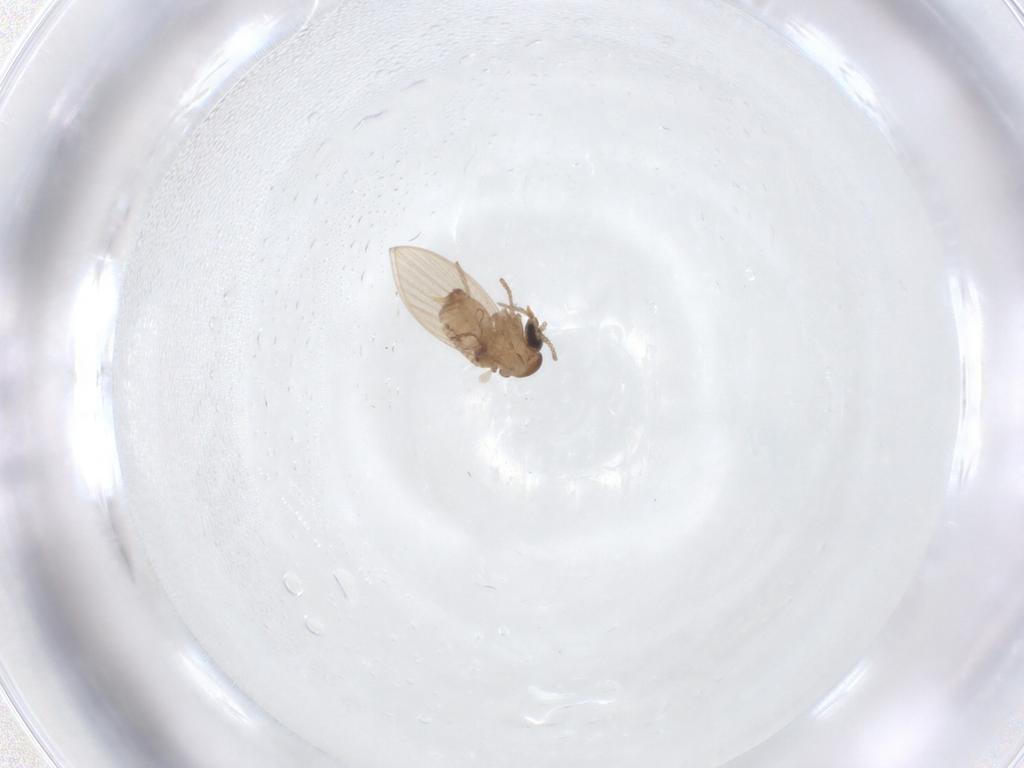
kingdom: Animalia
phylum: Arthropoda
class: Insecta
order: Diptera
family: Psychodidae
